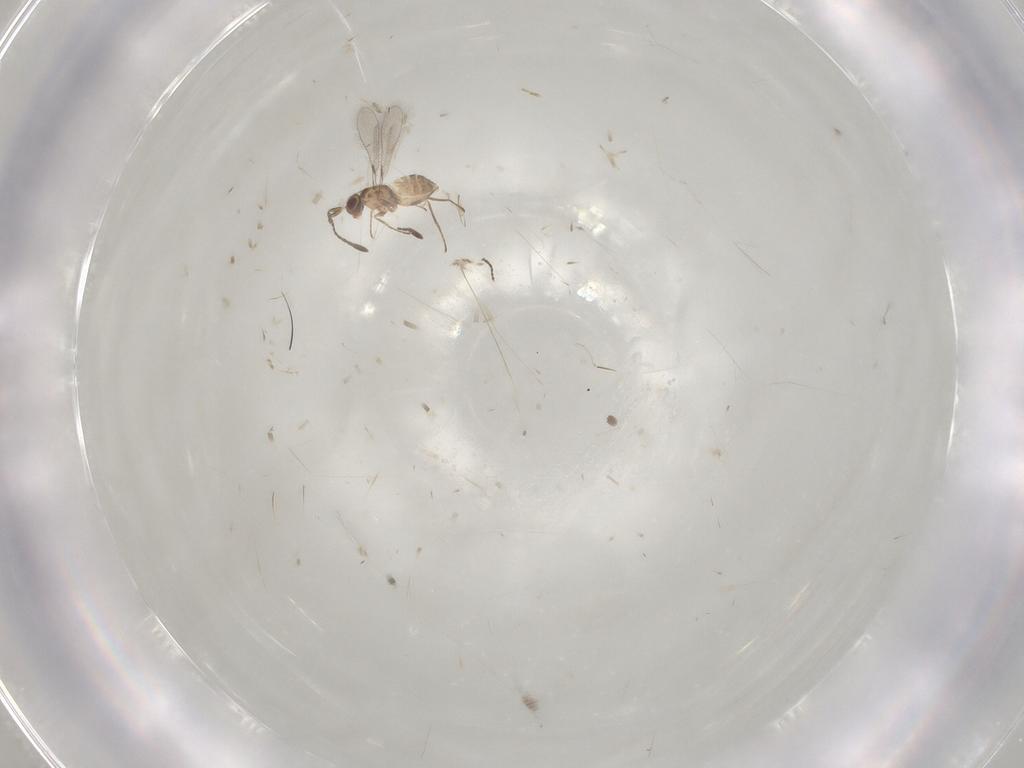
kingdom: Animalia
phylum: Arthropoda
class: Insecta
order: Hymenoptera
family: Mymaridae
